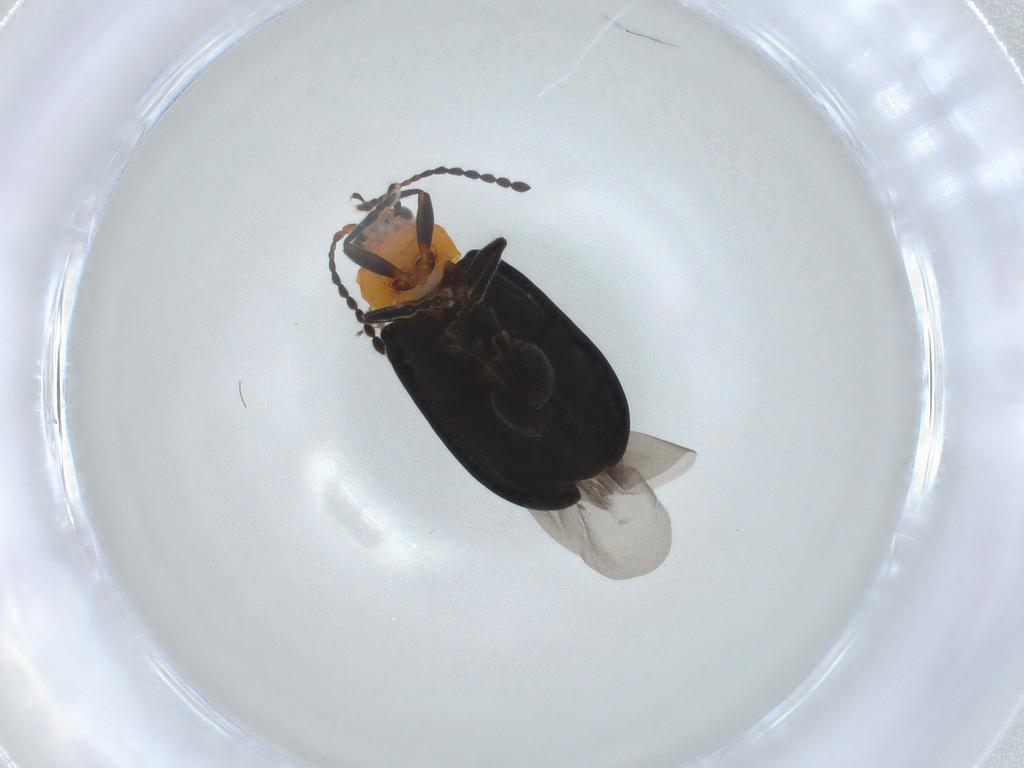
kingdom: Animalia
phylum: Arthropoda
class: Insecta
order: Coleoptera
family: Chrysomelidae
